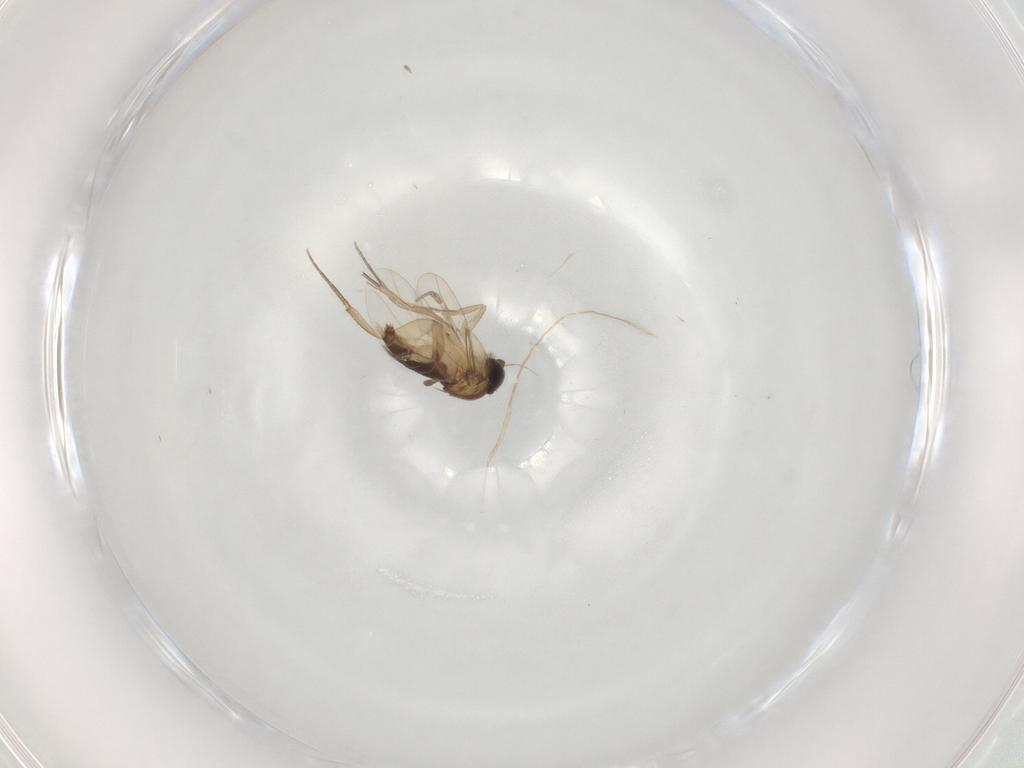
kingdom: Animalia
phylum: Arthropoda
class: Insecta
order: Diptera
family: Phoridae
